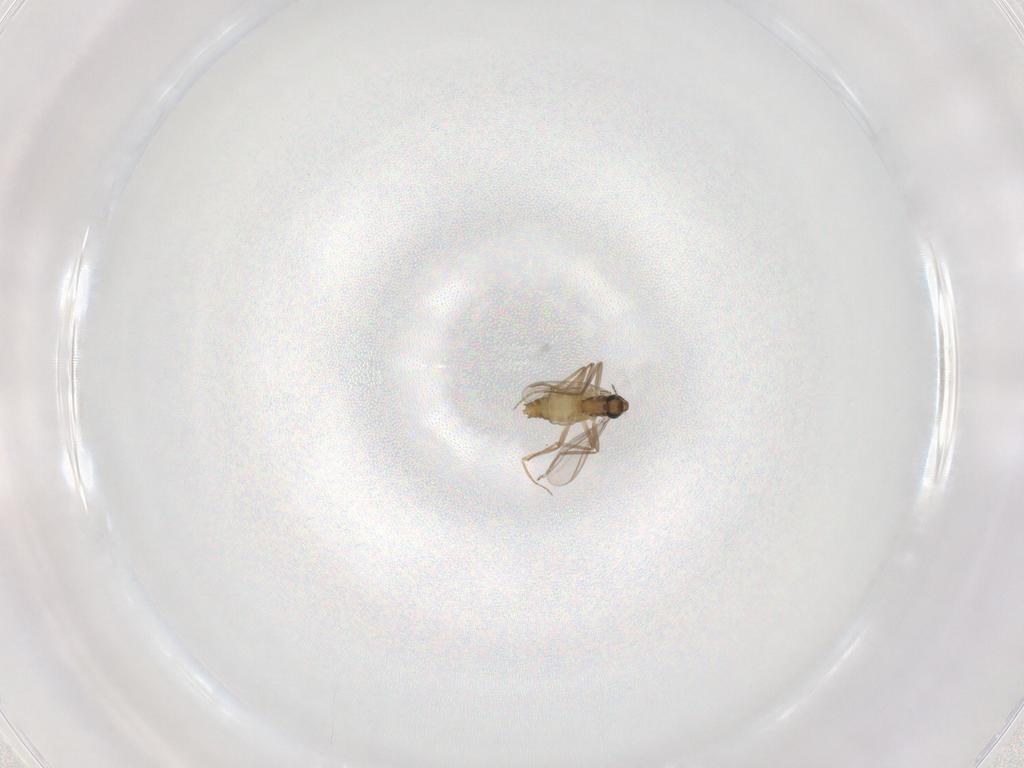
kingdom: Animalia
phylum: Arthropoda
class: Insecta
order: Diptera
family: Chironomidae
